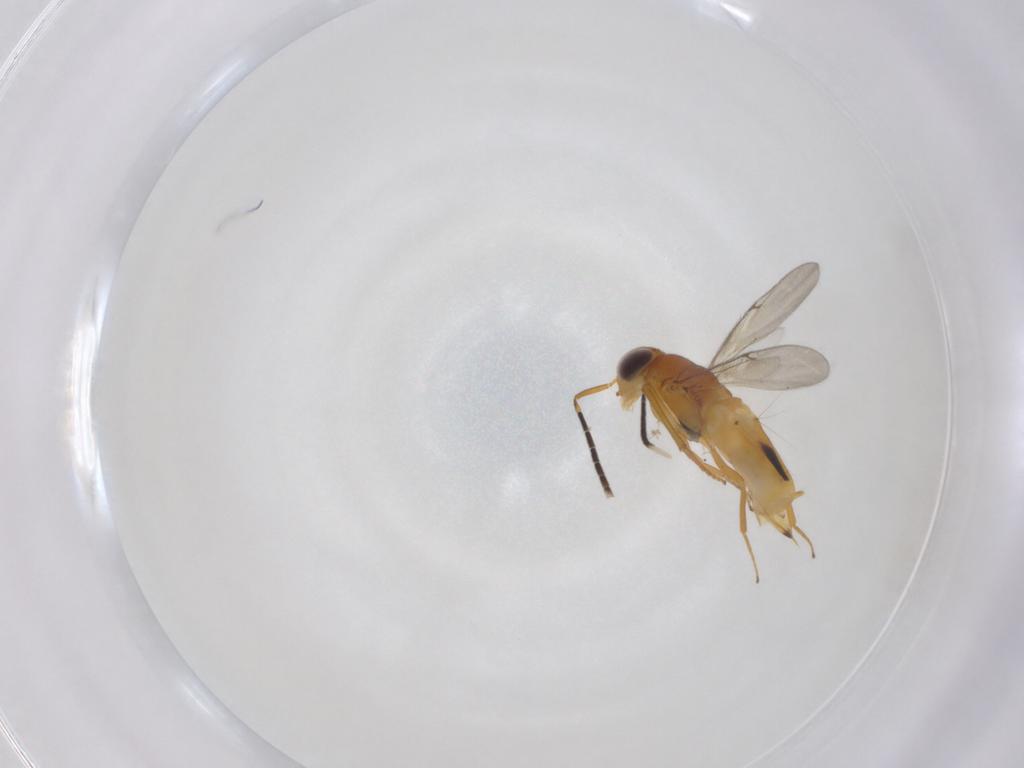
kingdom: Animalia
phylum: Arthropoda
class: Insecta
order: Hymenoptera
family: Encyrtidae
